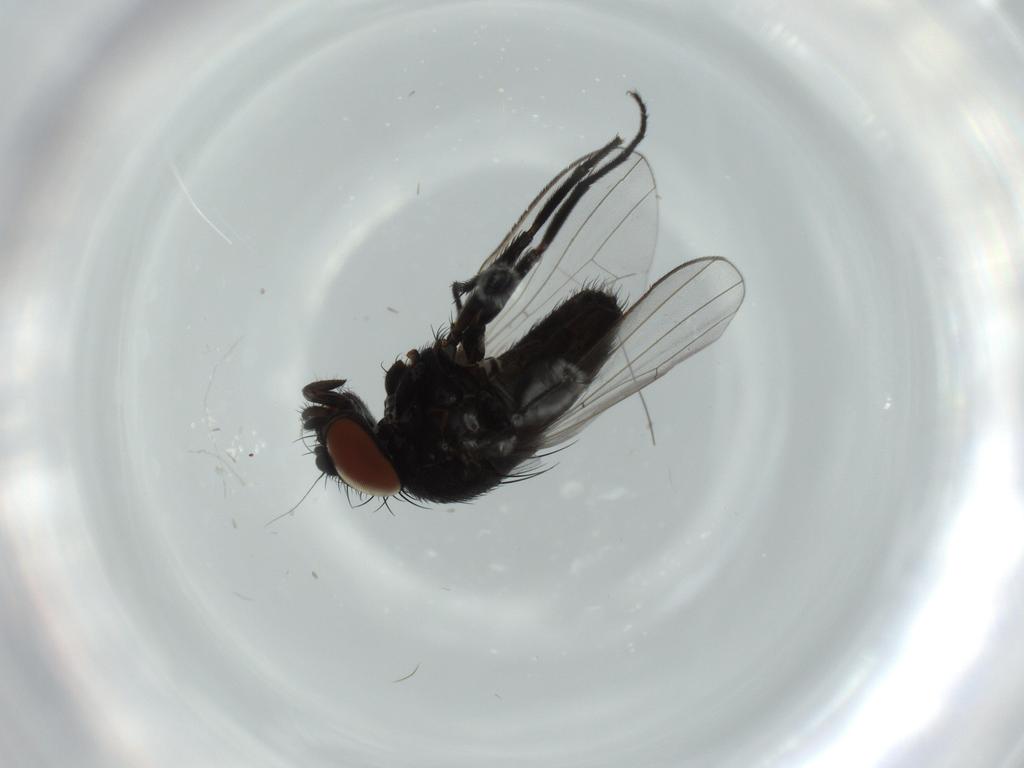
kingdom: Animalia
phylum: Arthropoda
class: Insecta
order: Diptera
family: Milichiidae
